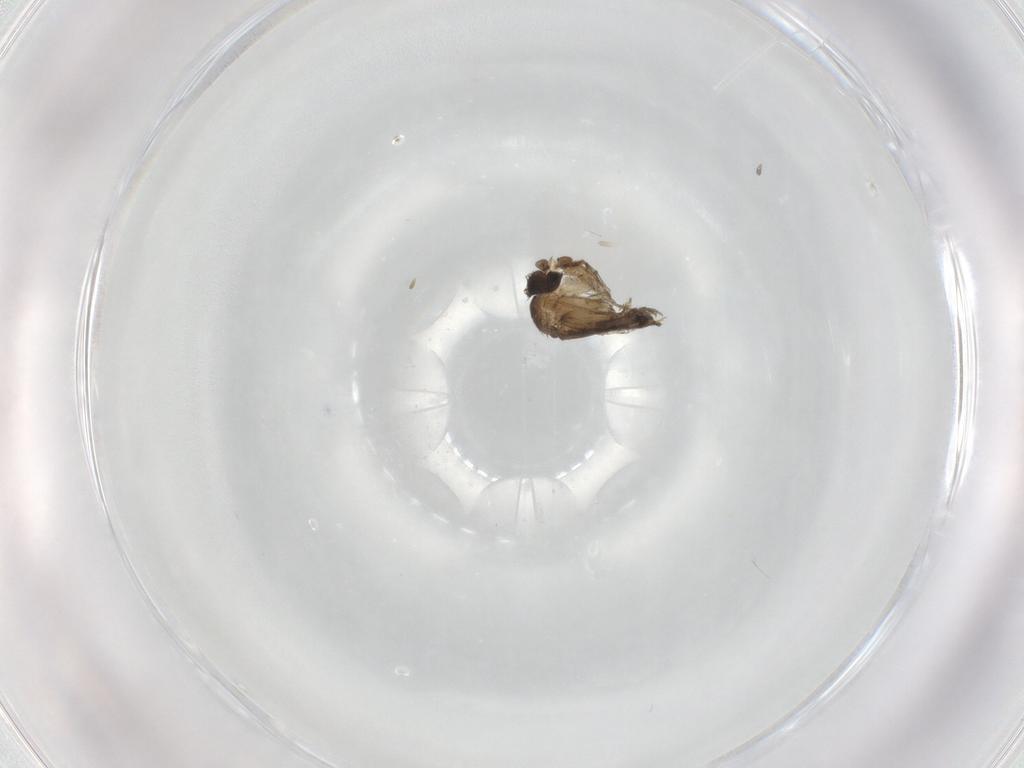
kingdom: Animalia
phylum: Arthropoda
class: Insecta
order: Diptera
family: Phoridae
